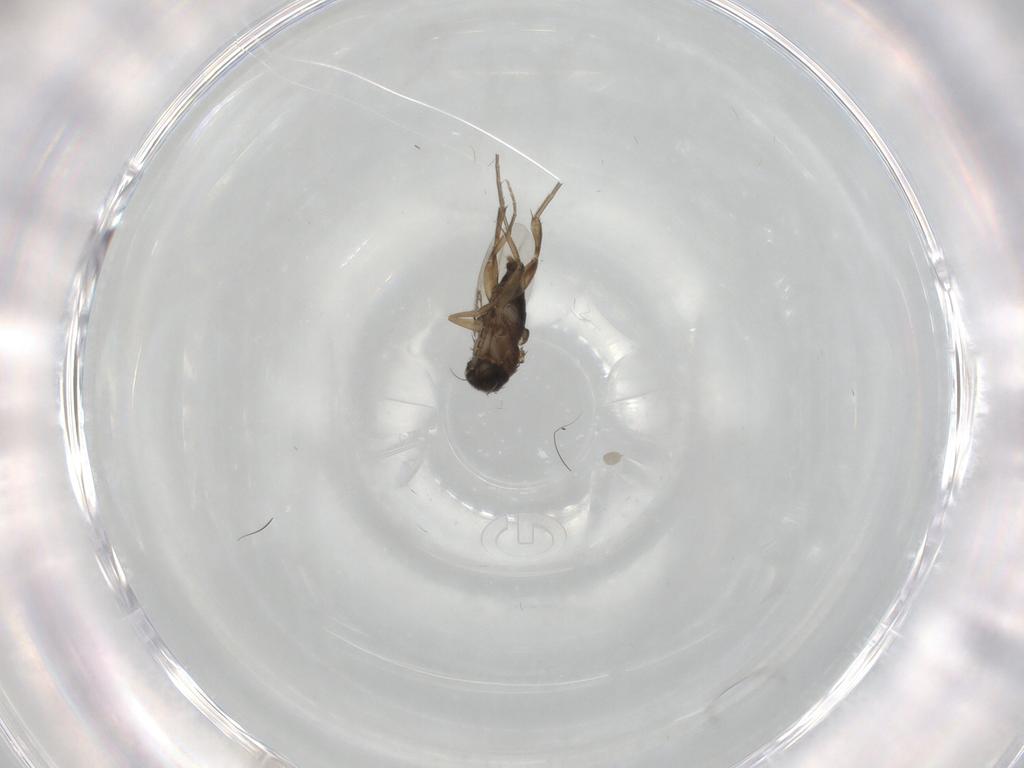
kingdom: Animalia
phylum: Arthropoda
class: Insecta
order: Diptera
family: Phoridae
